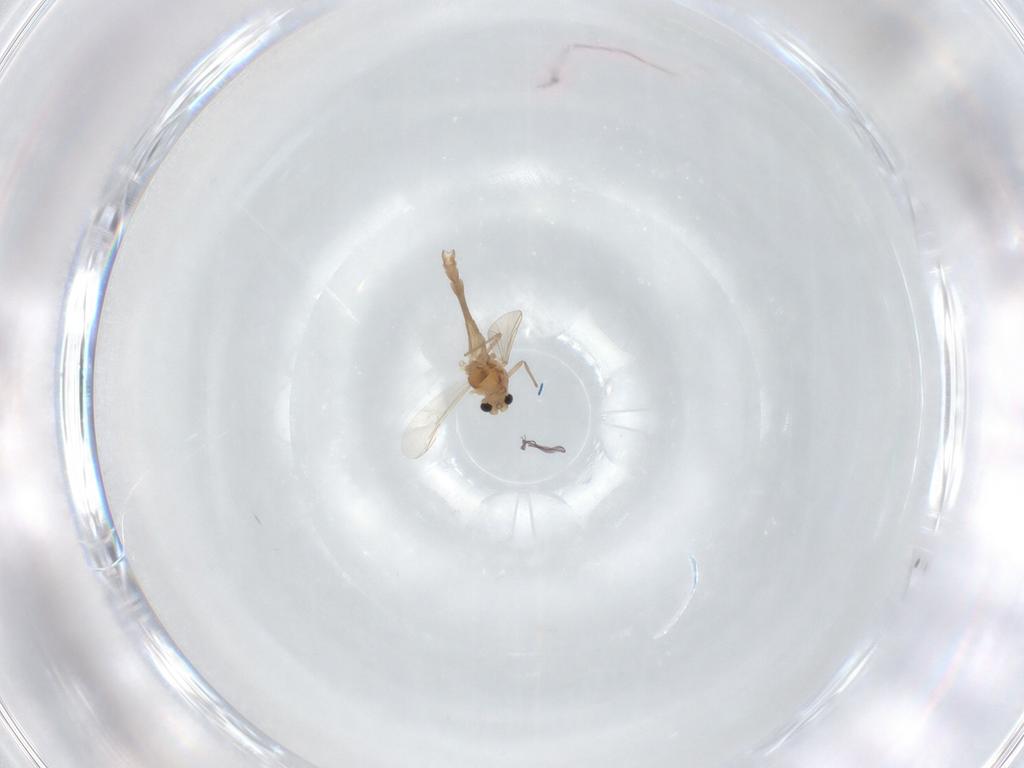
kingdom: Animalia
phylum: Arthropoda
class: Insecta
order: Diptera
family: Chironomidae
